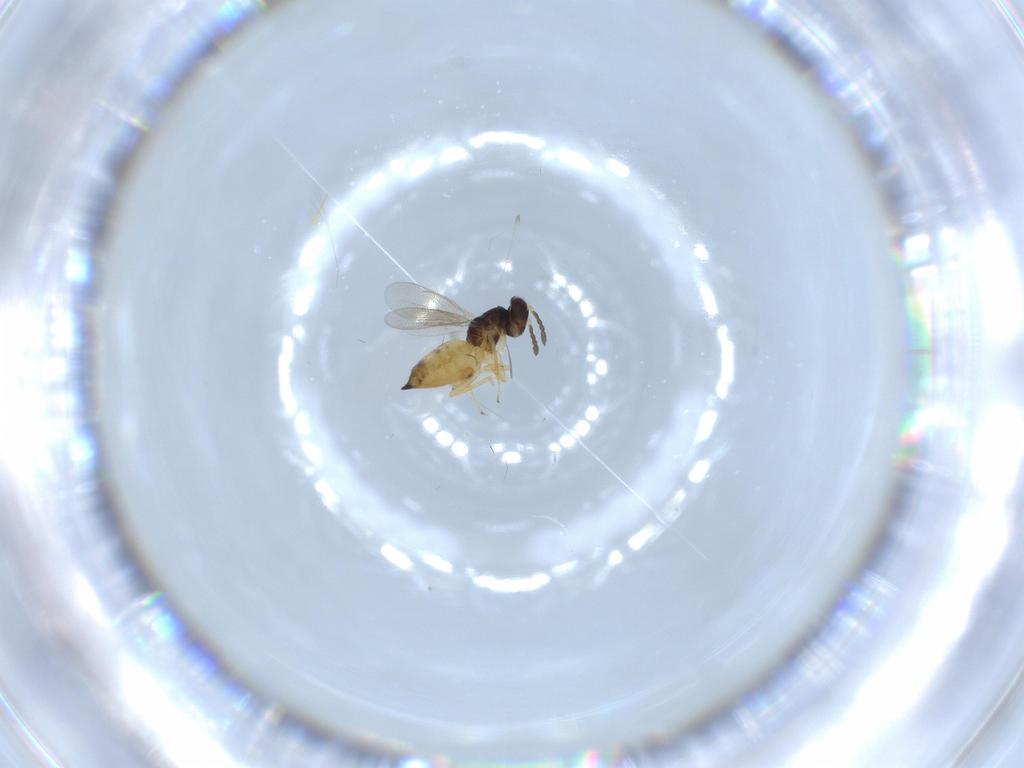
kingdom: Animalia
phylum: Arthropoda
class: Insecta
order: Hymenoptera
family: Eulophidae
